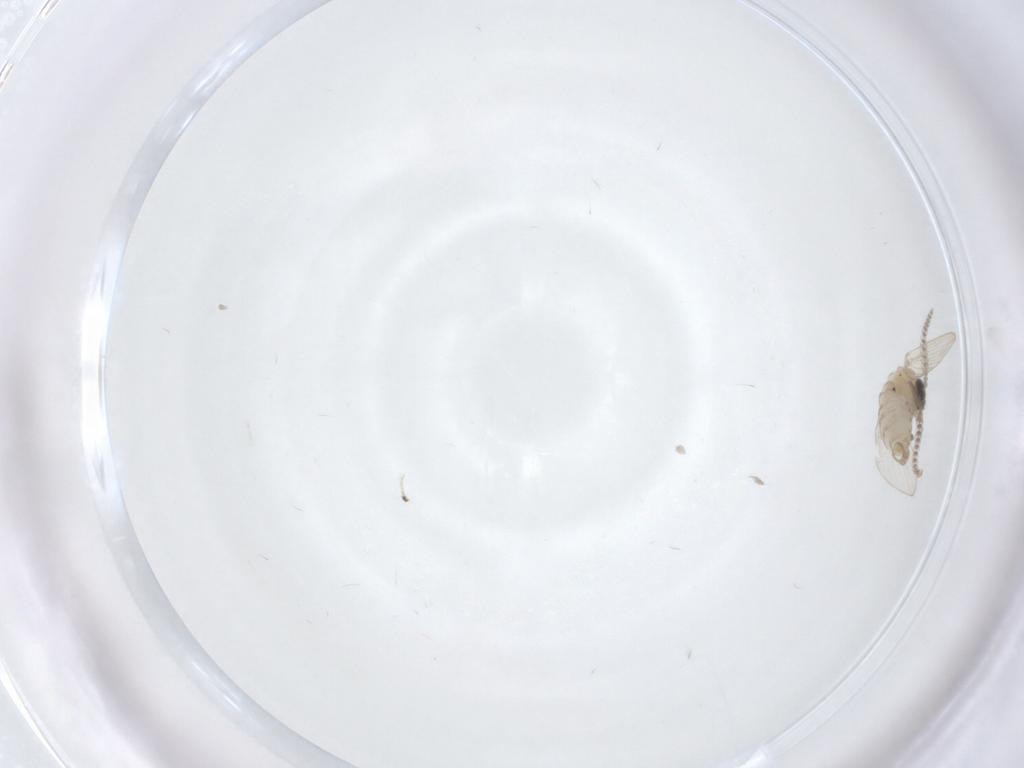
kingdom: Animalia
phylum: Arthropoda
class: Insecta
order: Diptera
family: Psychodidae
